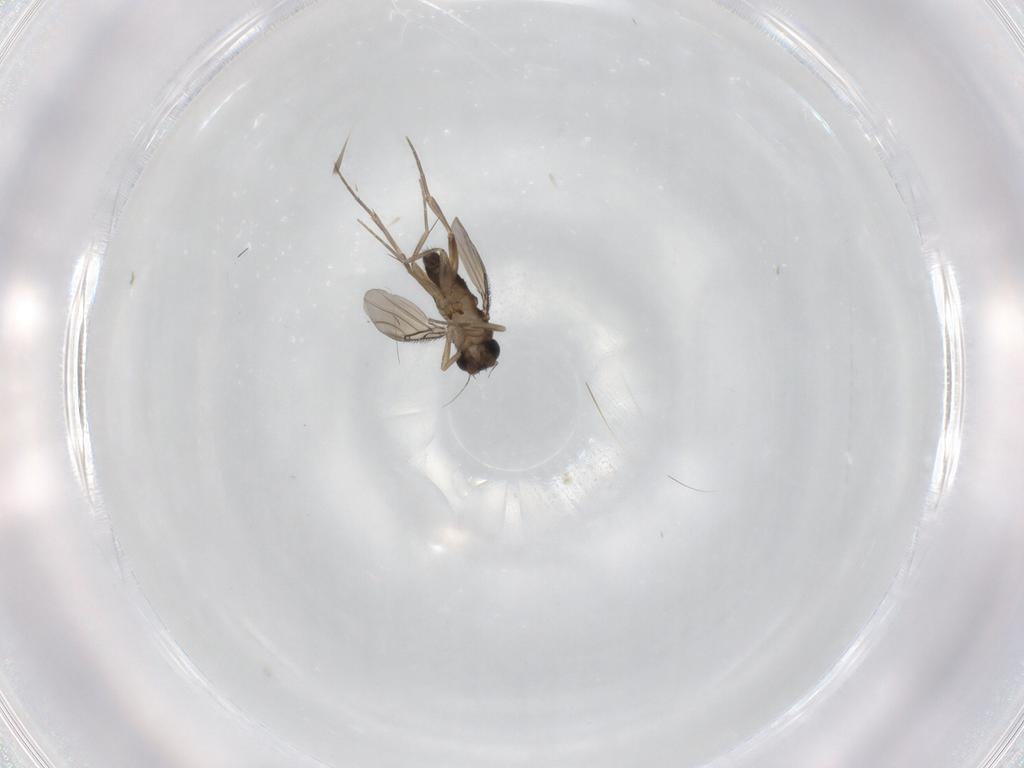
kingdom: Animalia
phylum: Arthropoda
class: Insecta
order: Diptera
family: Phoridae
